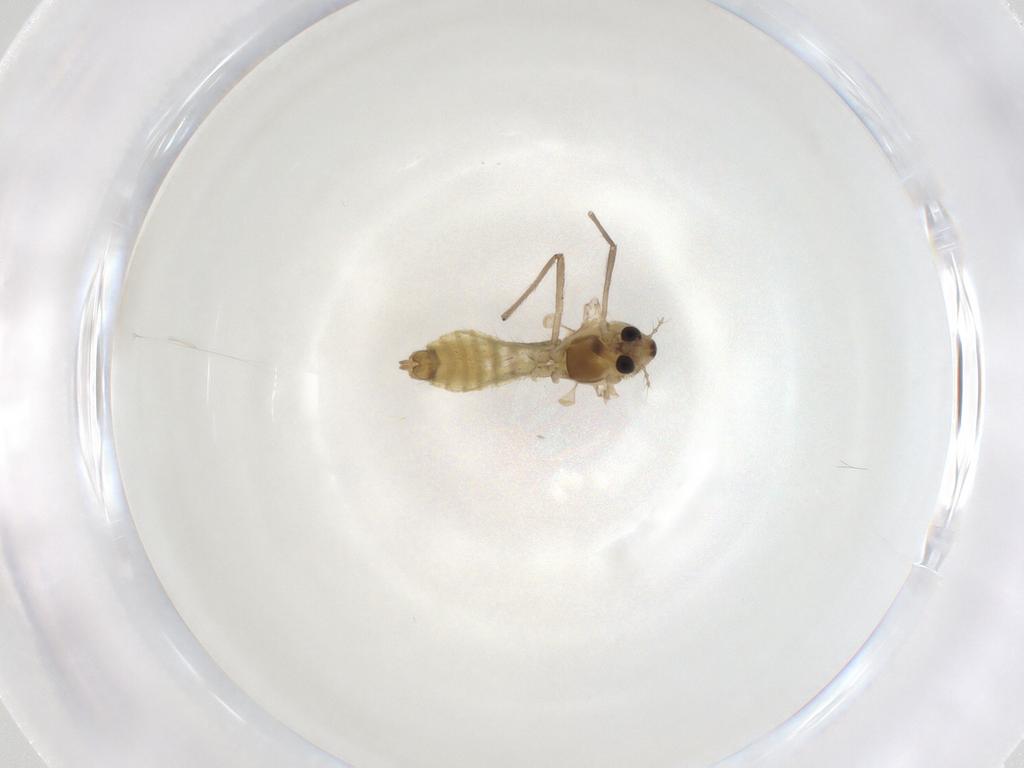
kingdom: Animalia
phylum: Arthropoda
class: Insecta
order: Diptera
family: Chironomidae
